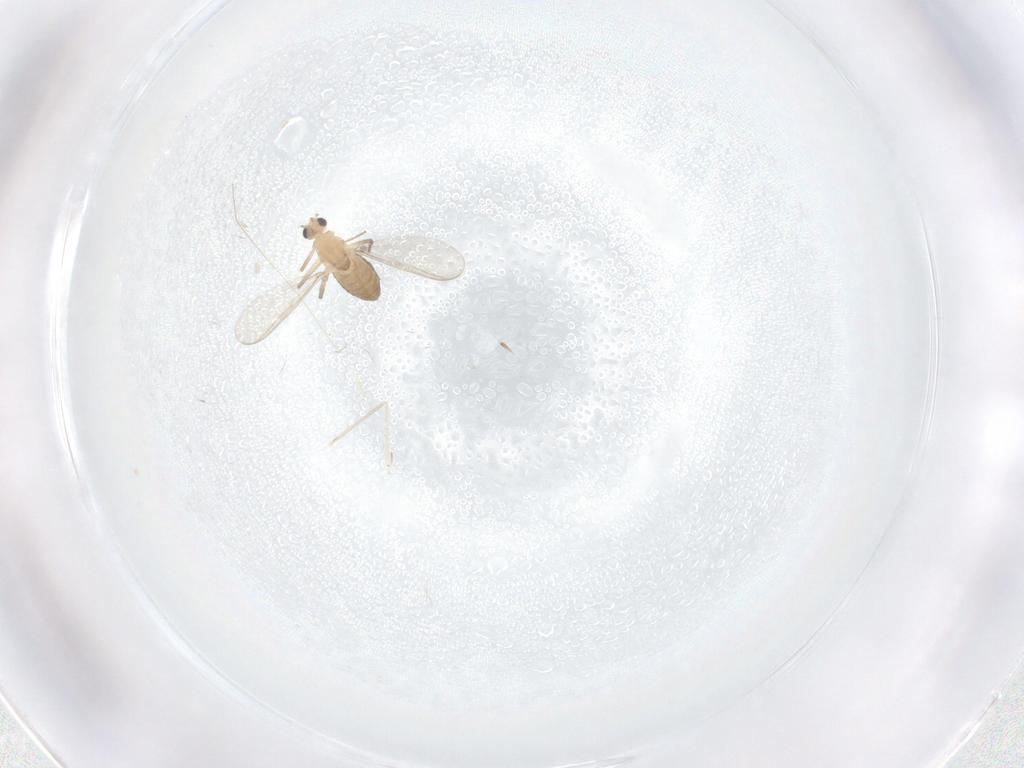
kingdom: Animalia
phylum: Arthropoda
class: Insecta
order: Diptera
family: Chironomidae
